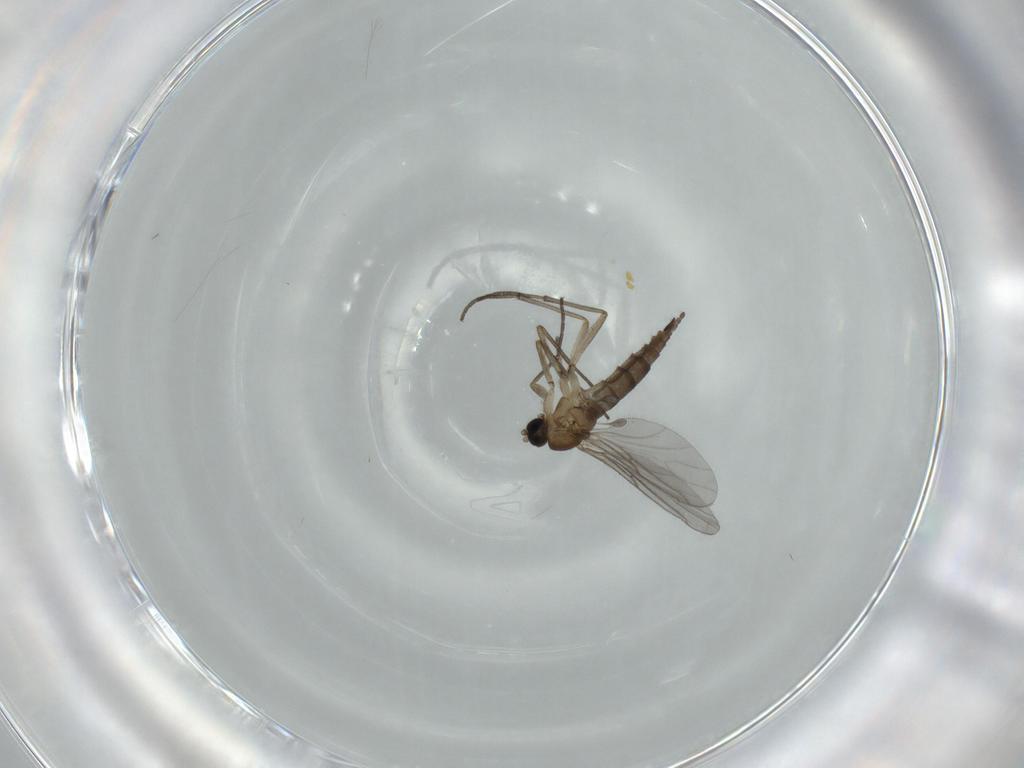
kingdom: Animalia
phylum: Arthropoda
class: Insecta
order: Diptera
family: Sciaridae
